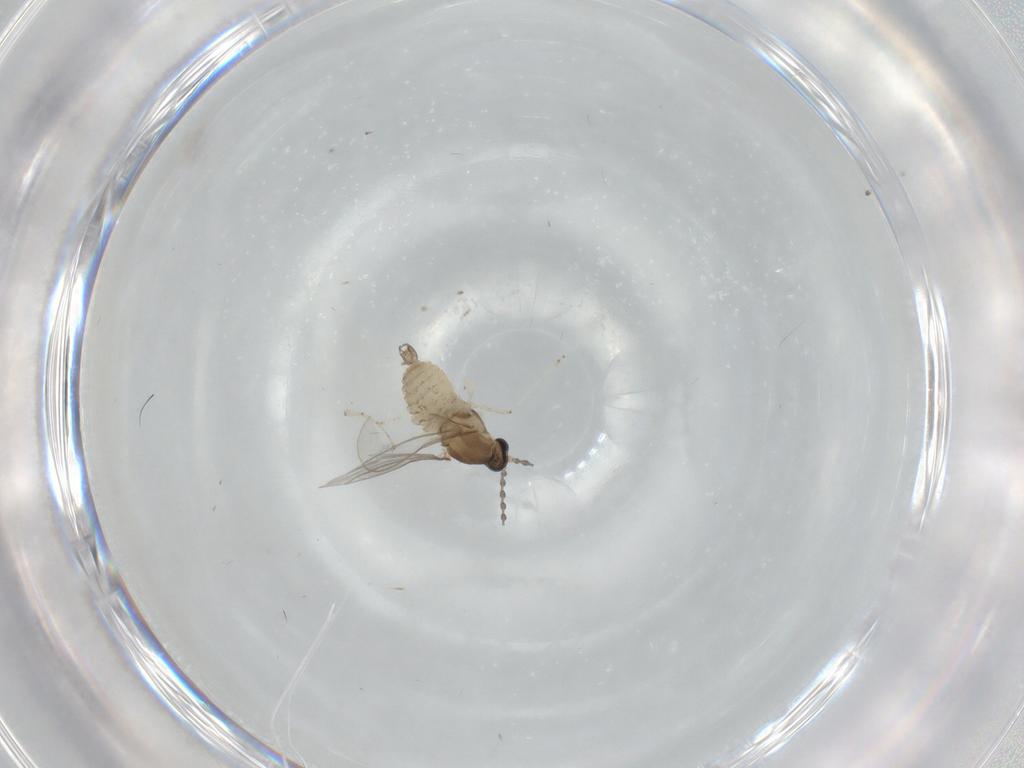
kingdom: Animalia
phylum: Arthropoda
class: Insecta
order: Diptera
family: Cecidomyiidae
